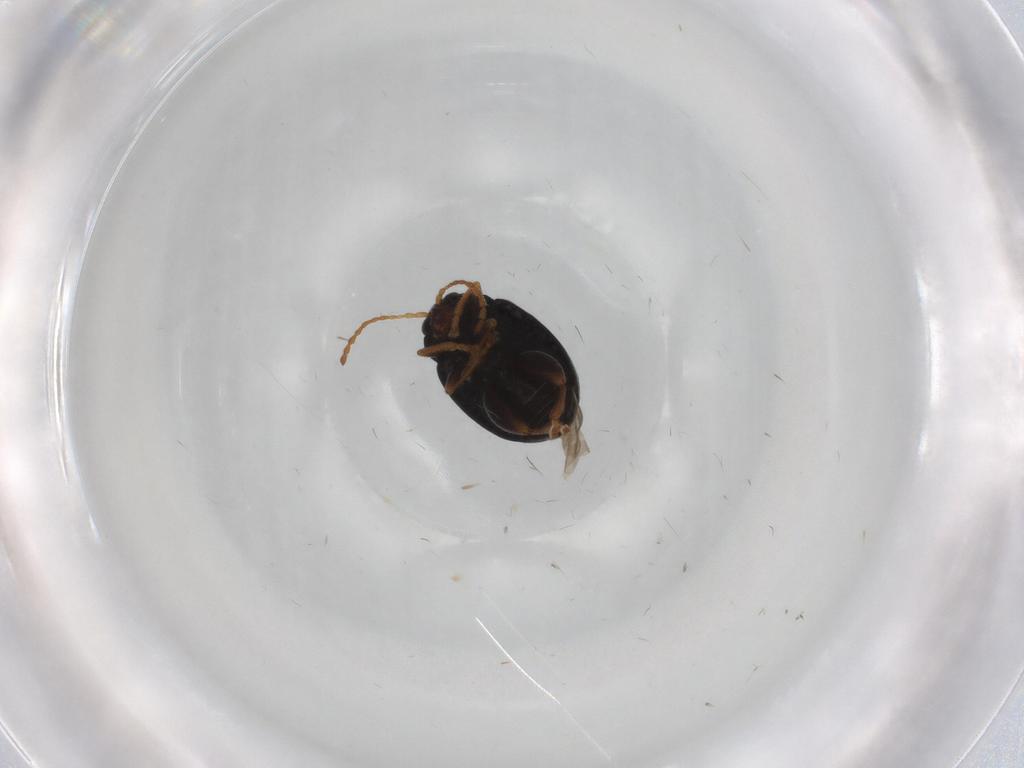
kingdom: Animalia
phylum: Arthropoda
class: Insecta
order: Coleoptera
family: Chrysomelidae
